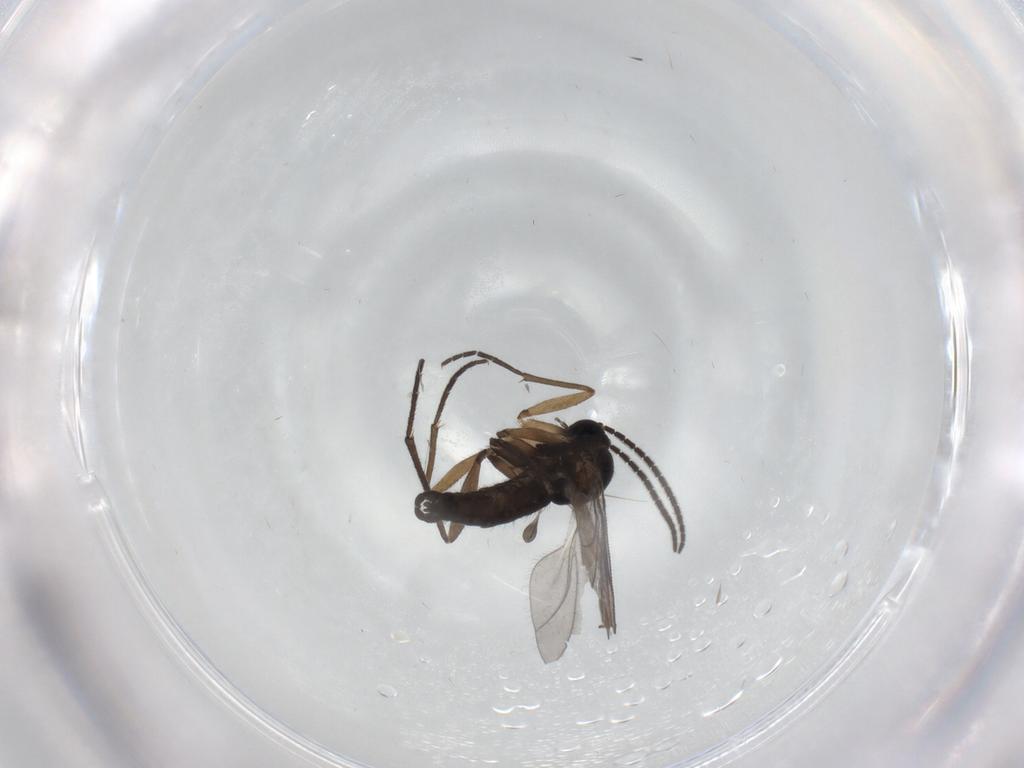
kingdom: Animalia
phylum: Arthropoda
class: Insecta
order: Diptera
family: Sciaridae
